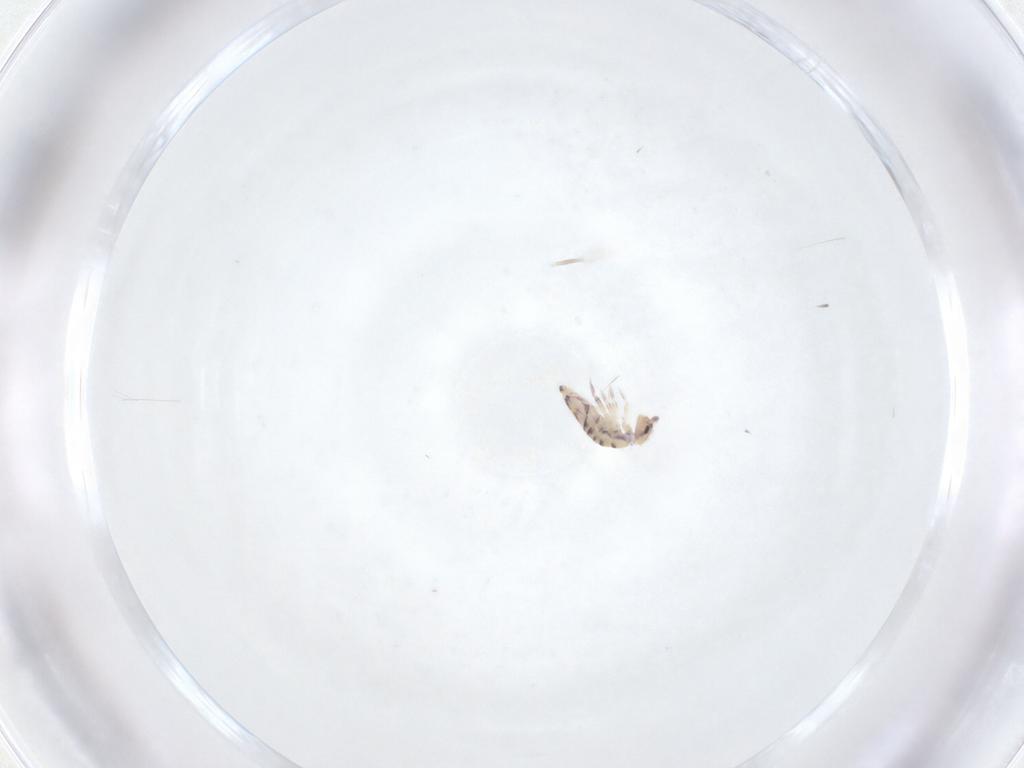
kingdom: Animalia
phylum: Arthropoda
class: Collembola
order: Entomobryomorpha
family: Entomobryidae
